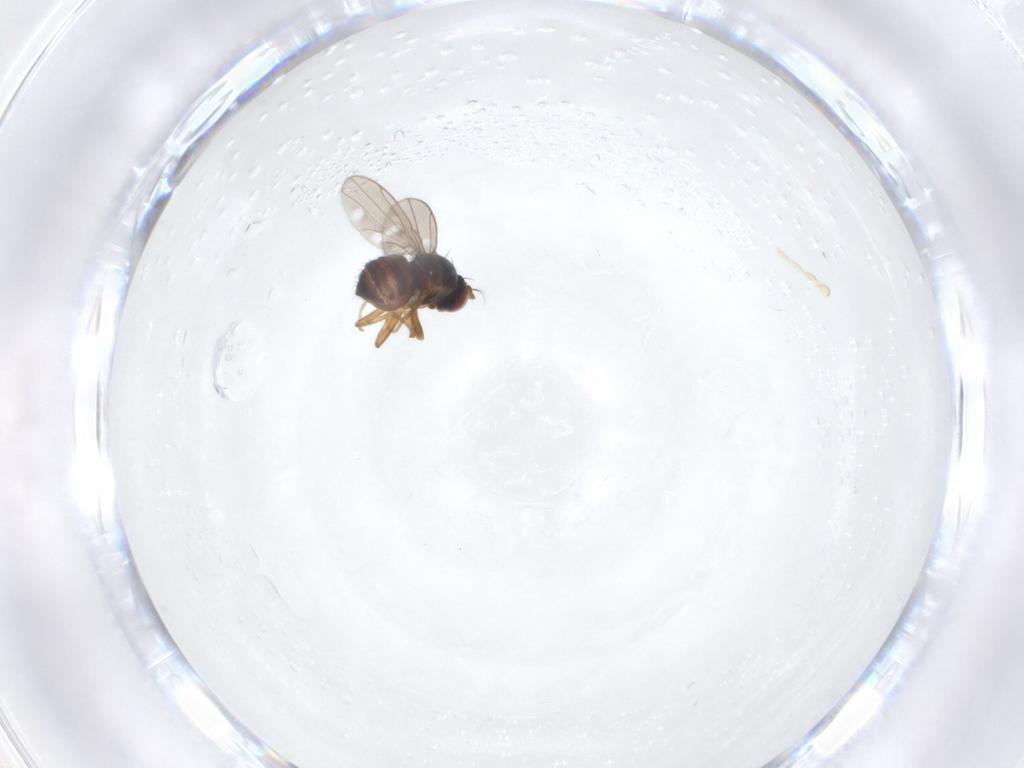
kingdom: Animalia
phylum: Arthropoda
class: Insecta
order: Diptera
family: Ephydridae
